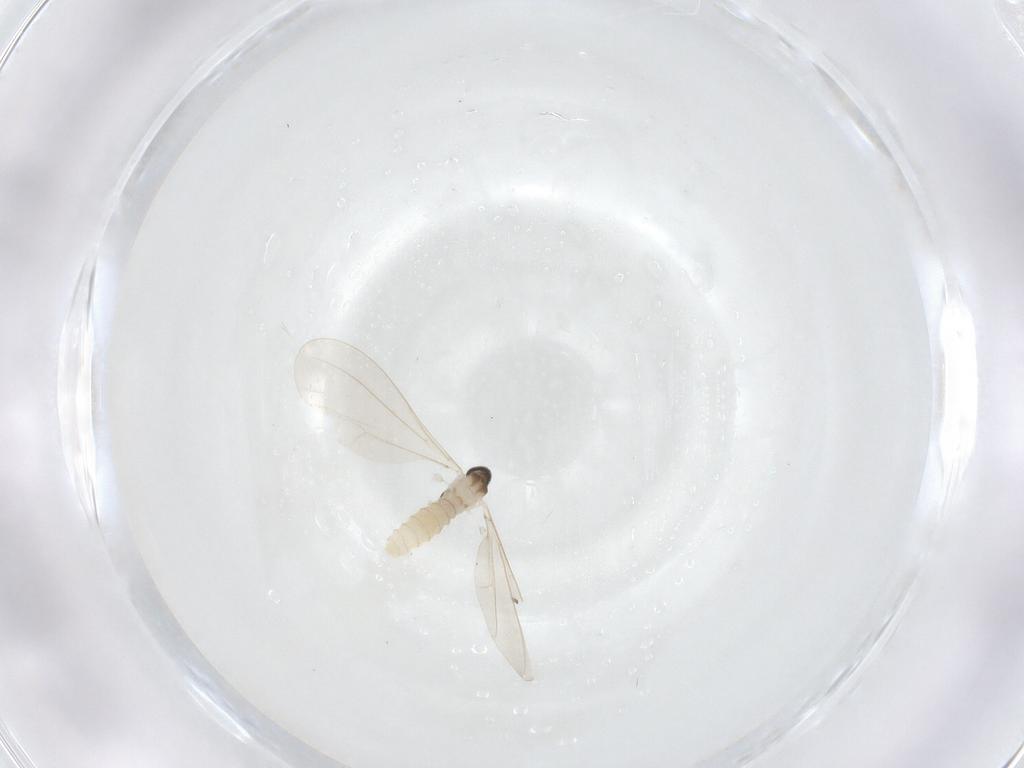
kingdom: Animalia
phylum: Arthropoda
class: Insecta
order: Diptera
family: Cecidomyiidae
